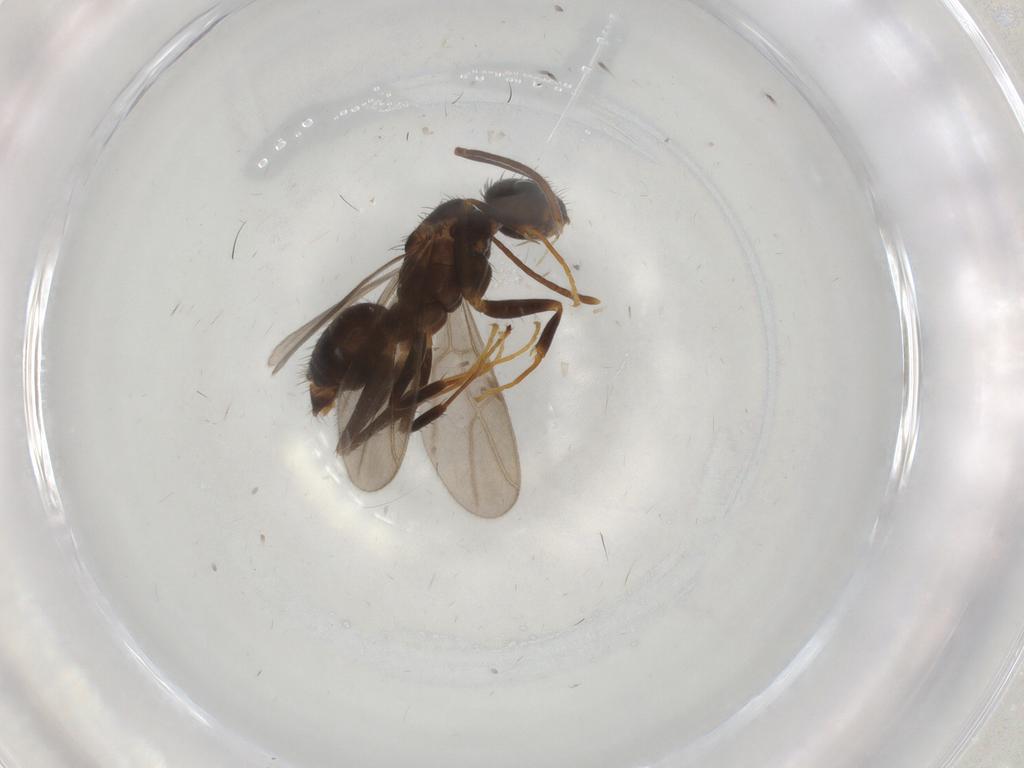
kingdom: Animalia
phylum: Arthropoda
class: Insecta
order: Hymenoptera
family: Formicidae
